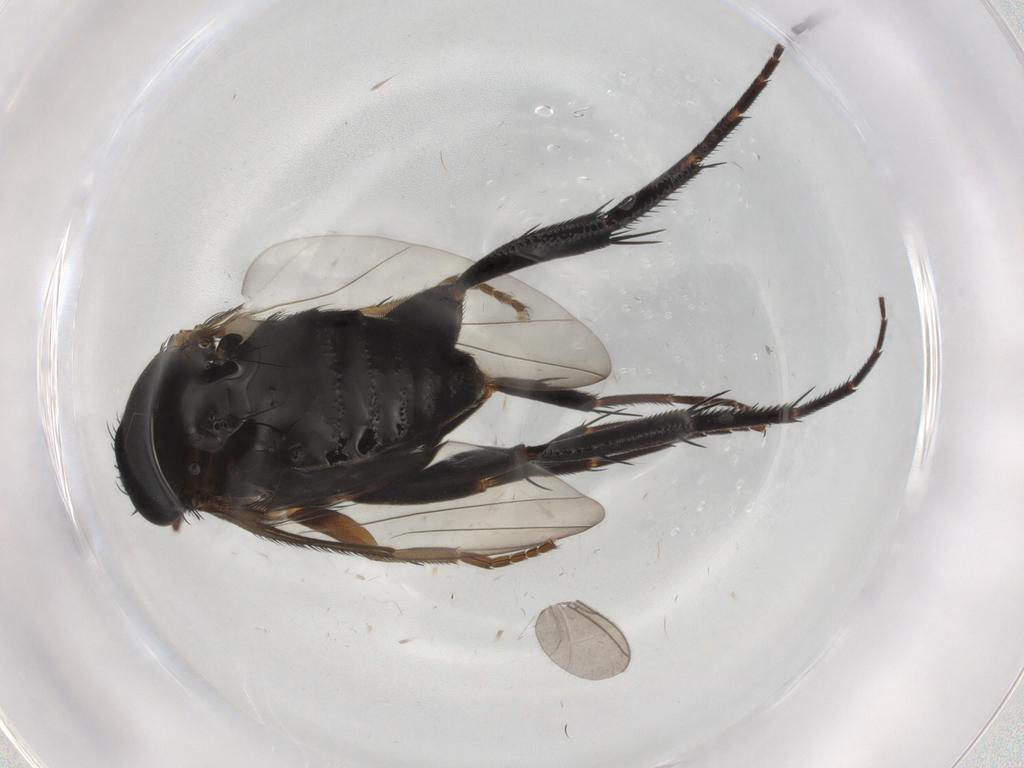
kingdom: Animalia
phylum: Arthropoda
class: Insecta
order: Diptera
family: Phoridae
